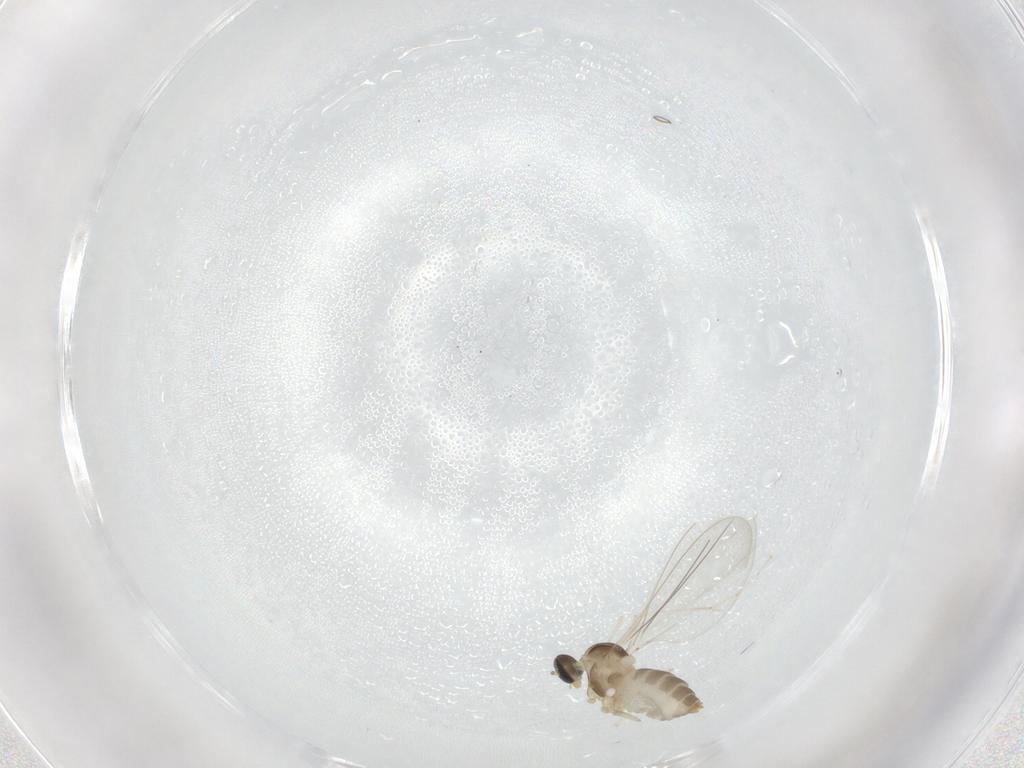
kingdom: Animalia
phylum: Arthropoda
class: Insecta
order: Diptera
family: Cecidomyiidae
